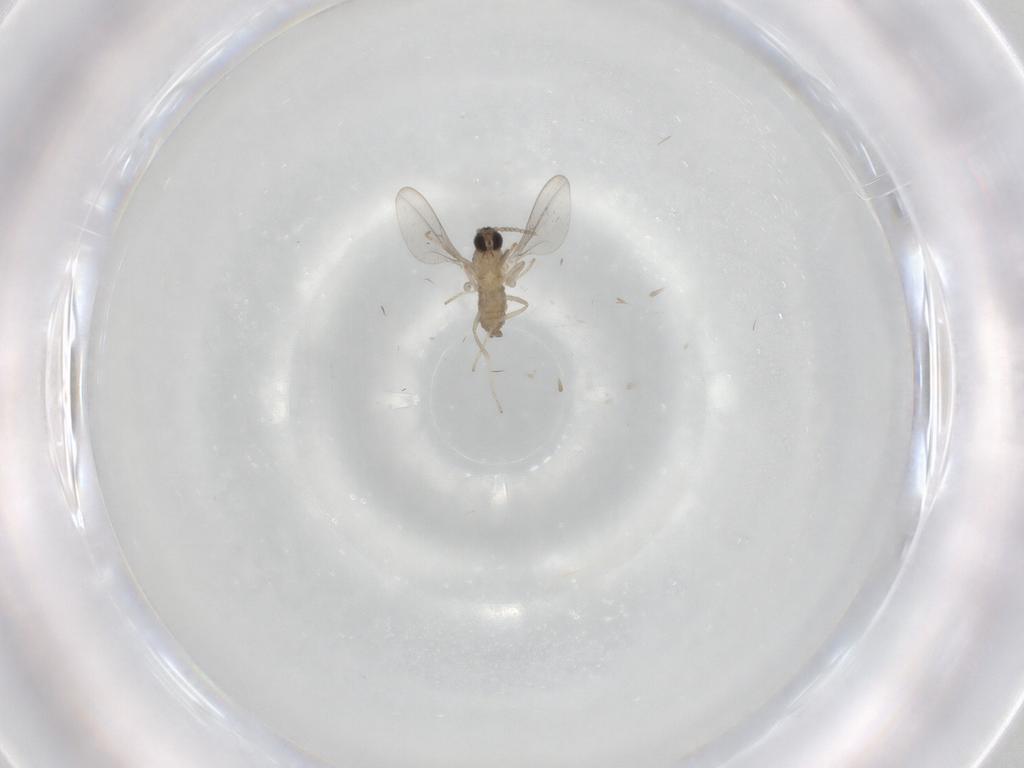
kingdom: Animalia
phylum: Arthropoda
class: Insecta
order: Diptera
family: Cecidomyiidae
